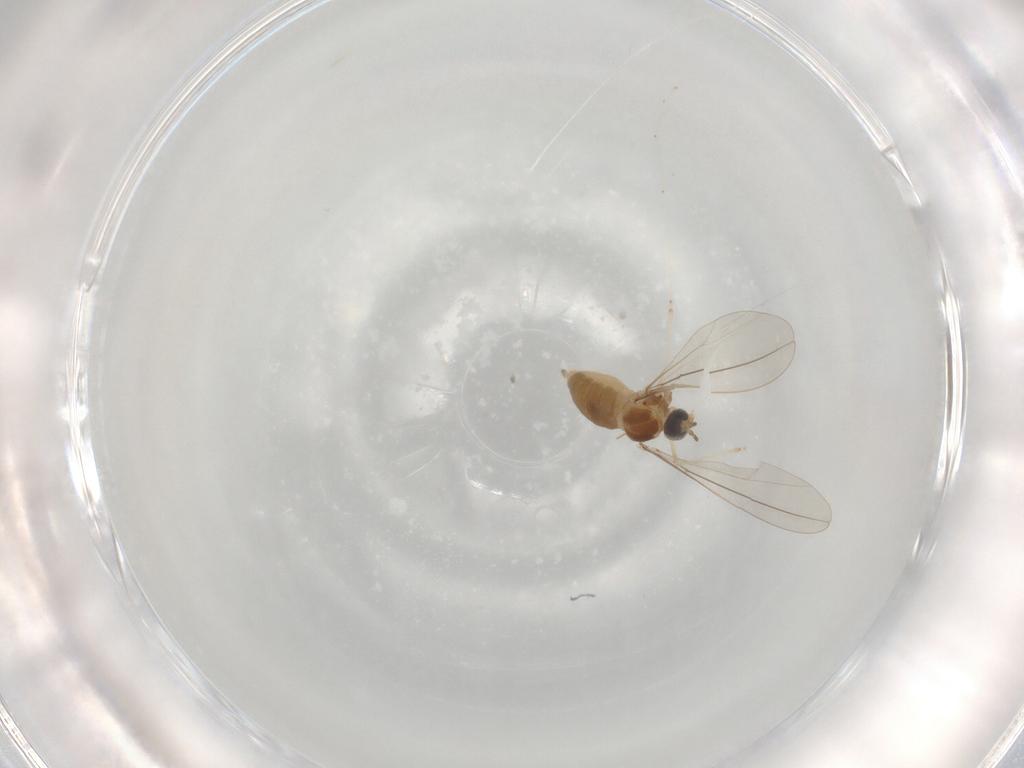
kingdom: Animalia
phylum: Arthropoda
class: Insecta
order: Diptera
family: Cecidomyiidae
